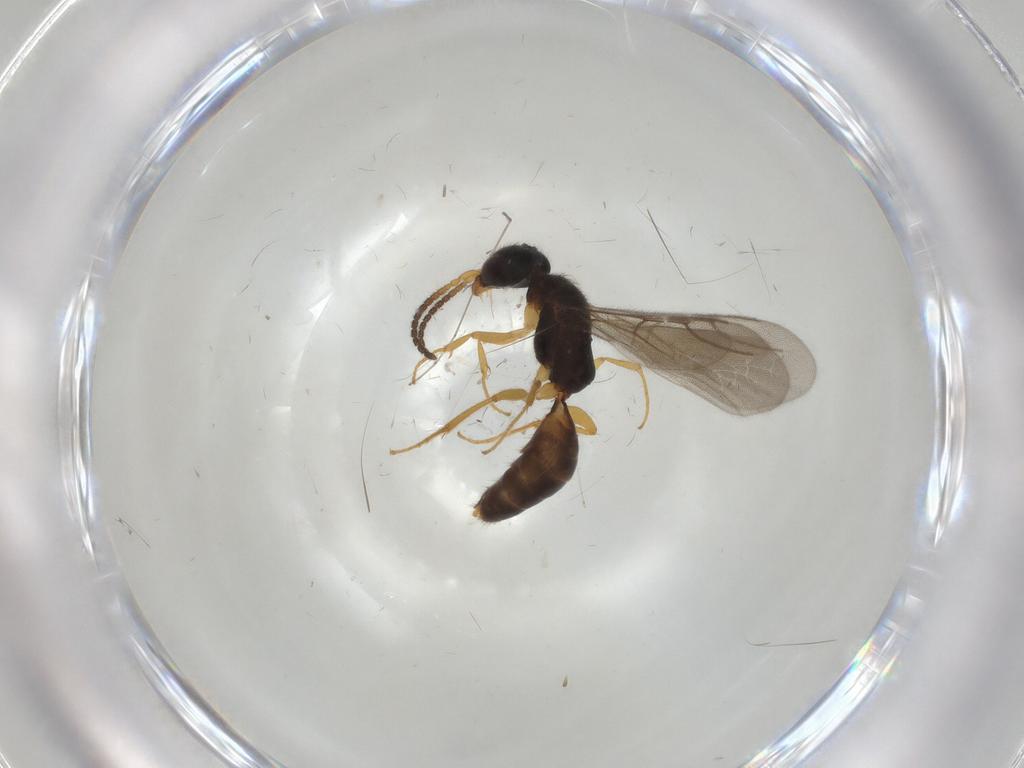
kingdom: Animalia
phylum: Arthropoda
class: Insecta
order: Hymenoptera
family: Bethylidae
